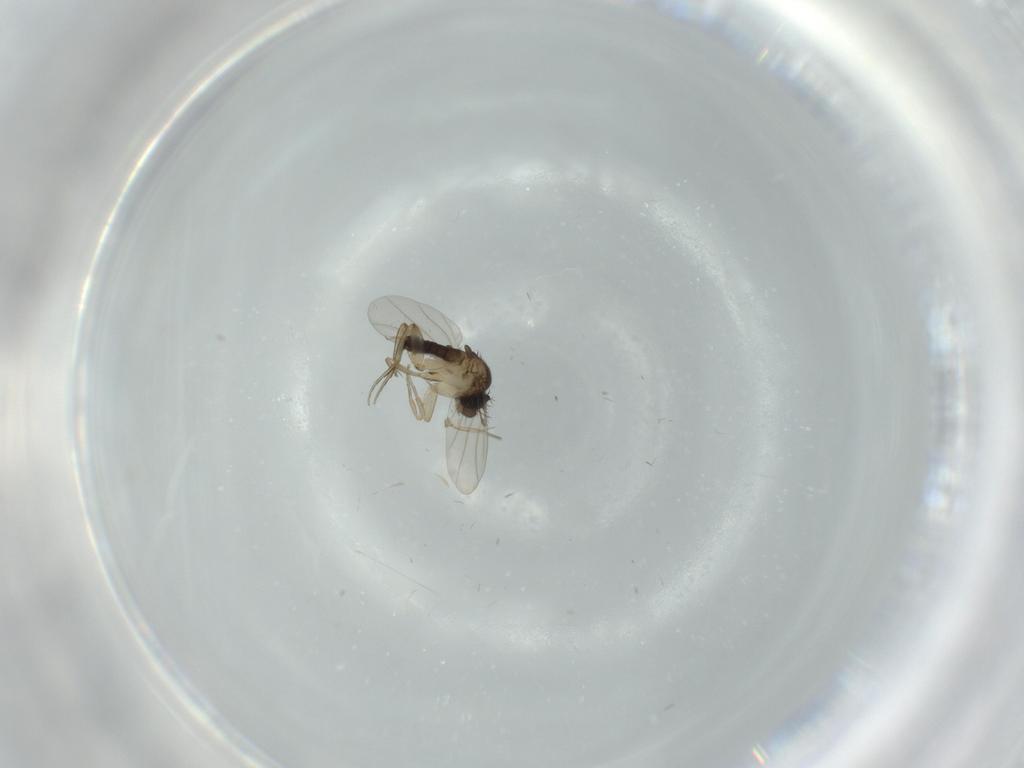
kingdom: Animalia
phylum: Arthropoda
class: Insecta
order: Diptera
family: Phoridae
